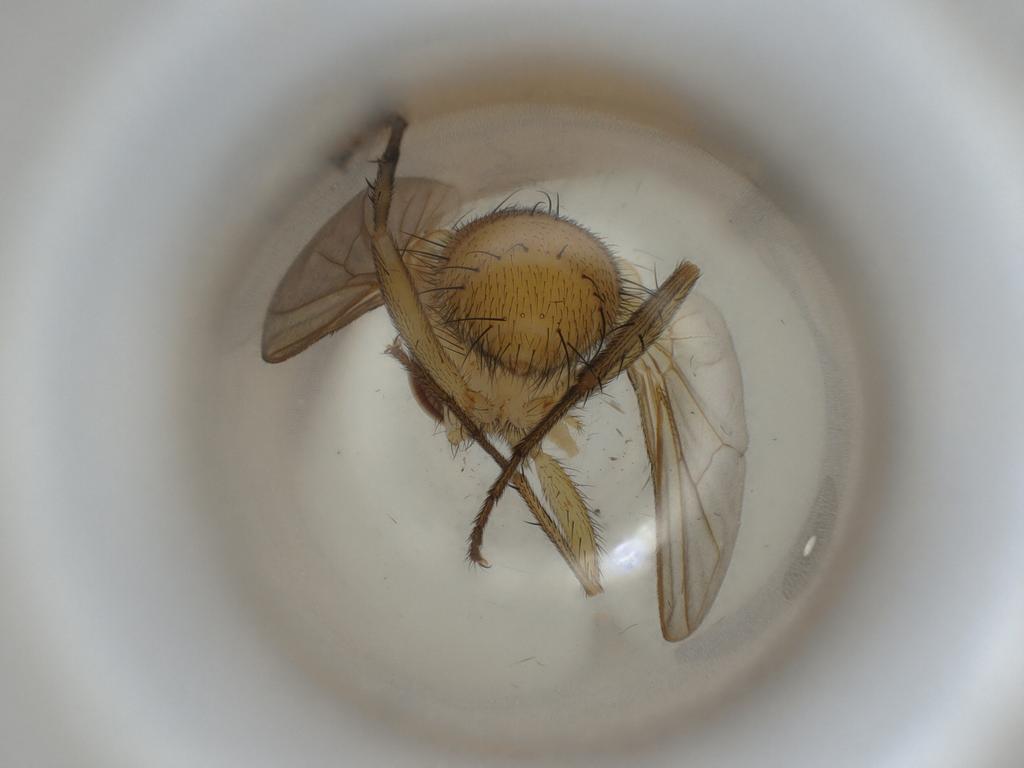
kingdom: Animalia
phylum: Arthropoda
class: Insecta
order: Diptera
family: Tachinidae
